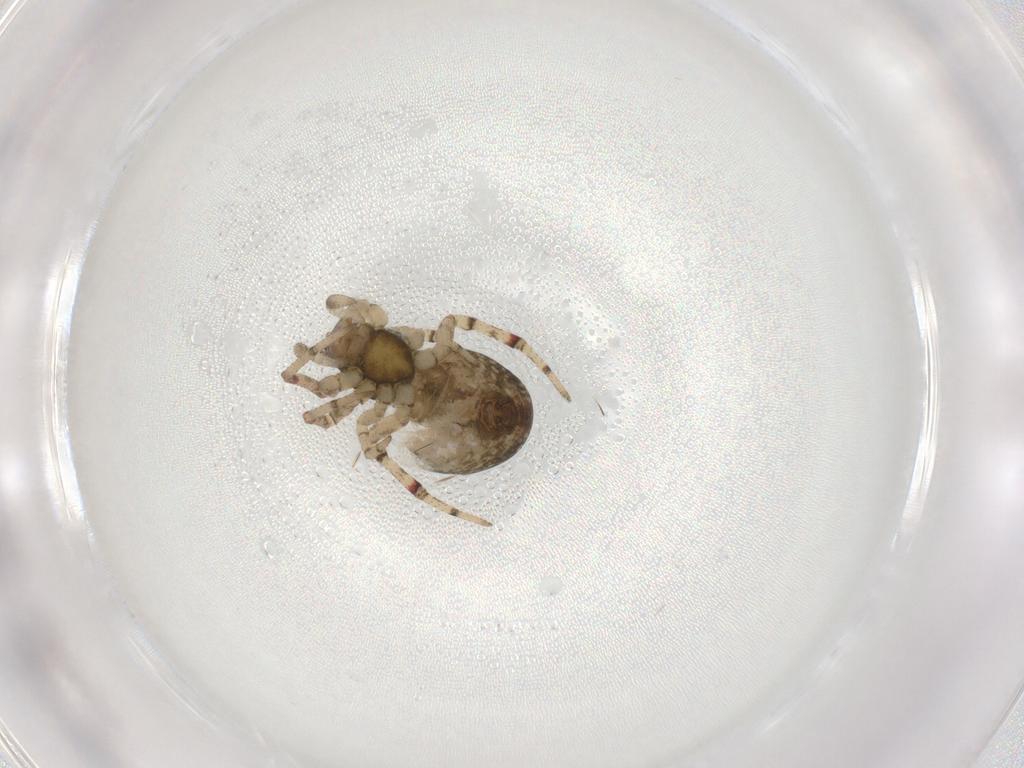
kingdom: Animalia
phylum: Arthropoda
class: Arachnida
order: Araneae
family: Theridiidae
